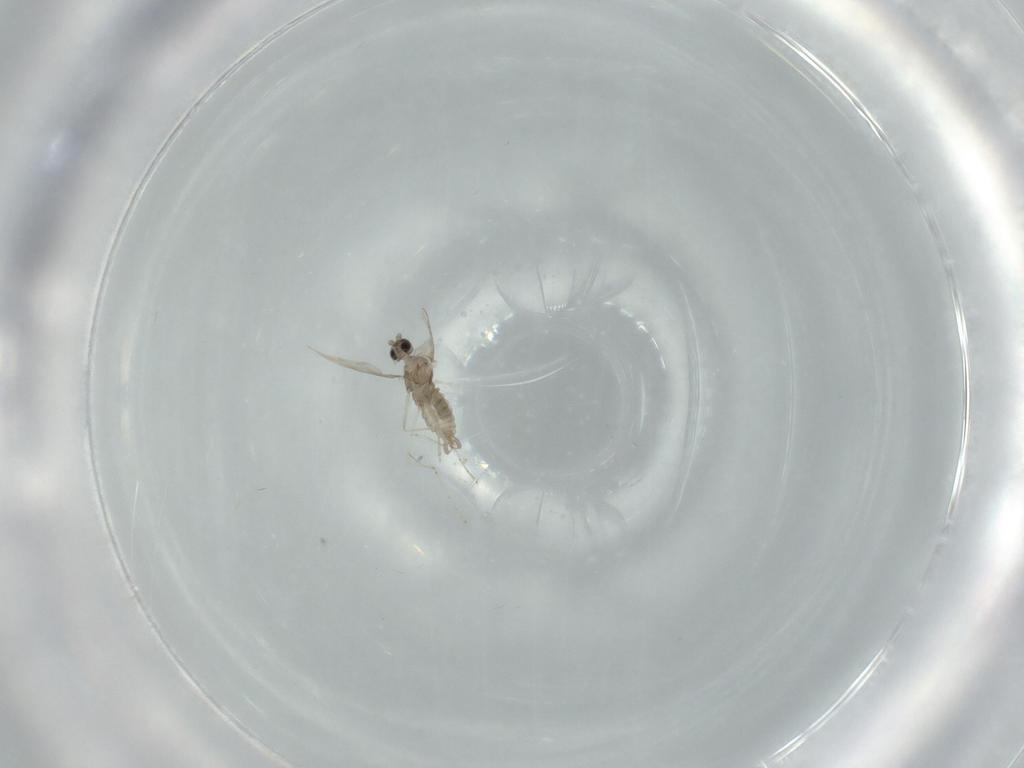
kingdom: Animalia
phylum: Arthropoda
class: Insecta
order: Diptera
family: Cecidomyiidae
